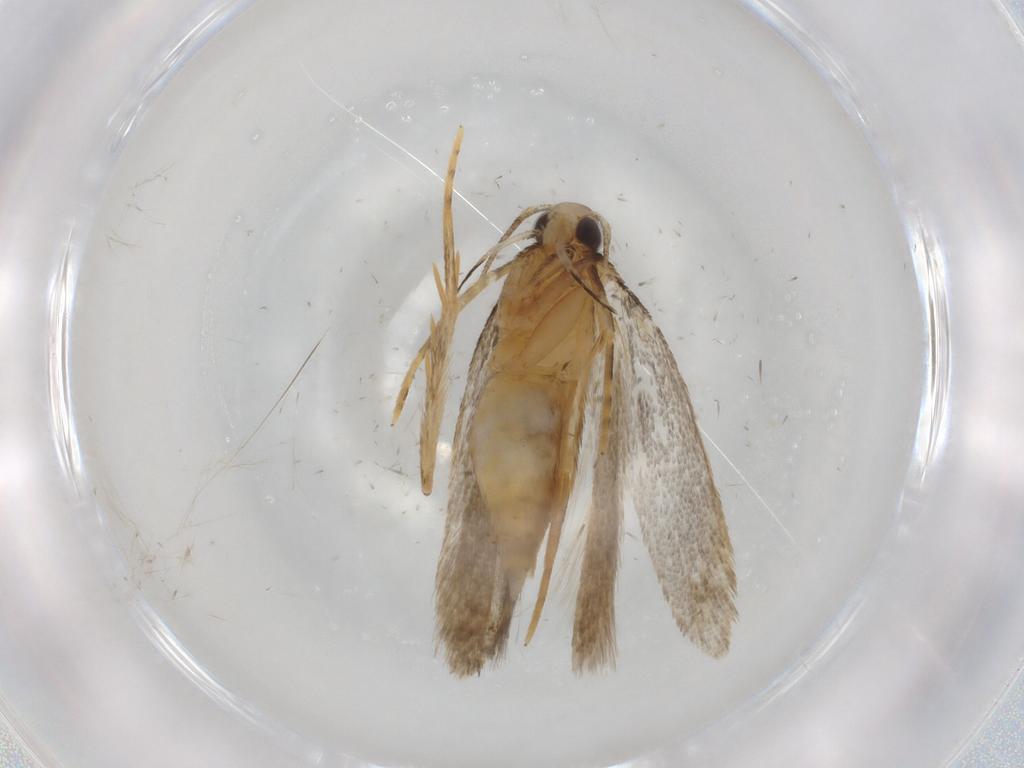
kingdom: Animalia
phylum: Arthropoda
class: Insecta
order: Lepidoptera
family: Autostichidae
